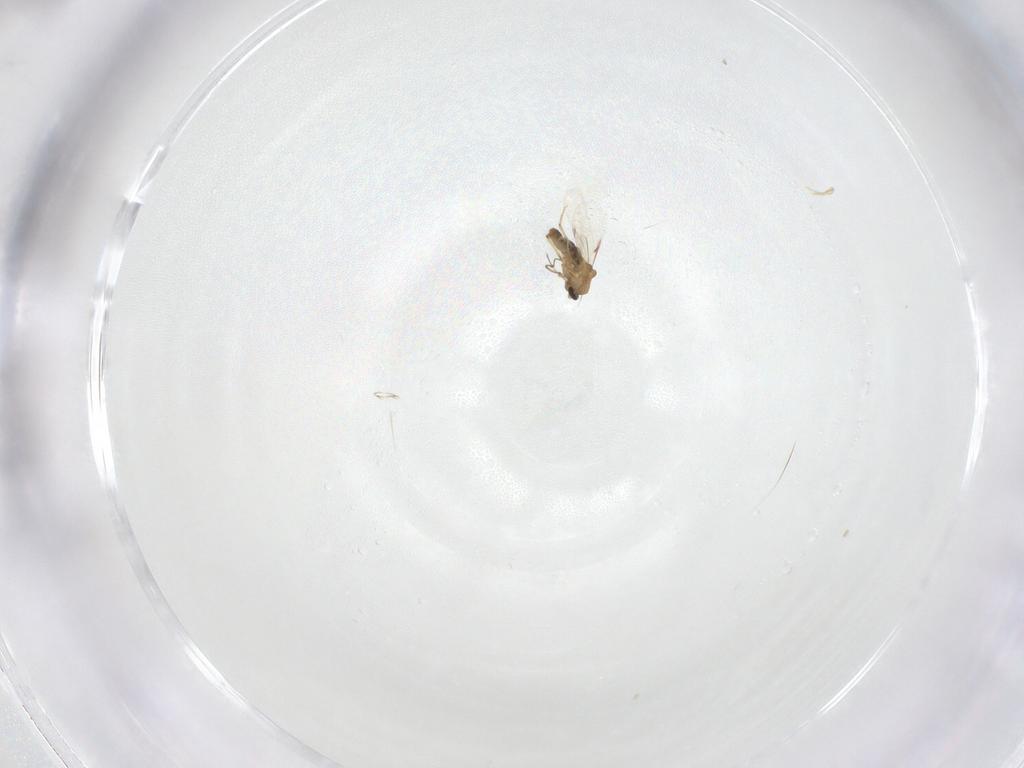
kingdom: Animalia
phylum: Arthropoda
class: Insecta
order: Diptera
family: Ceratopogonidae
